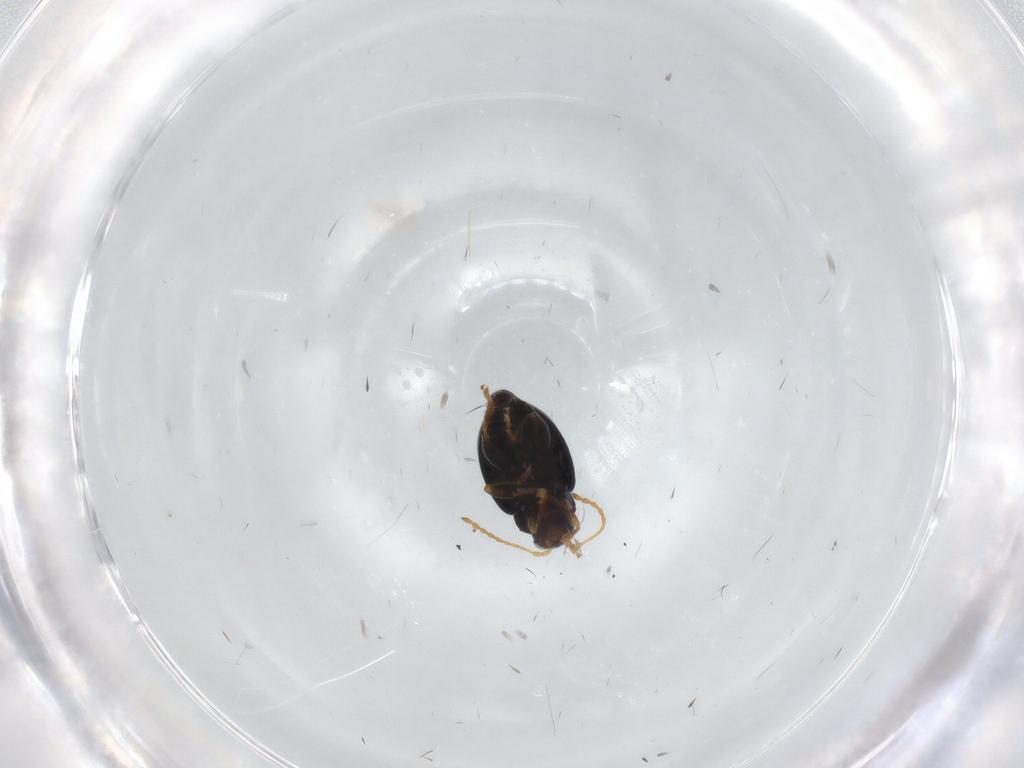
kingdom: Animalia
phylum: Arthropoda
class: Insecta
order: Coleoptera
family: Chrysomelidae
